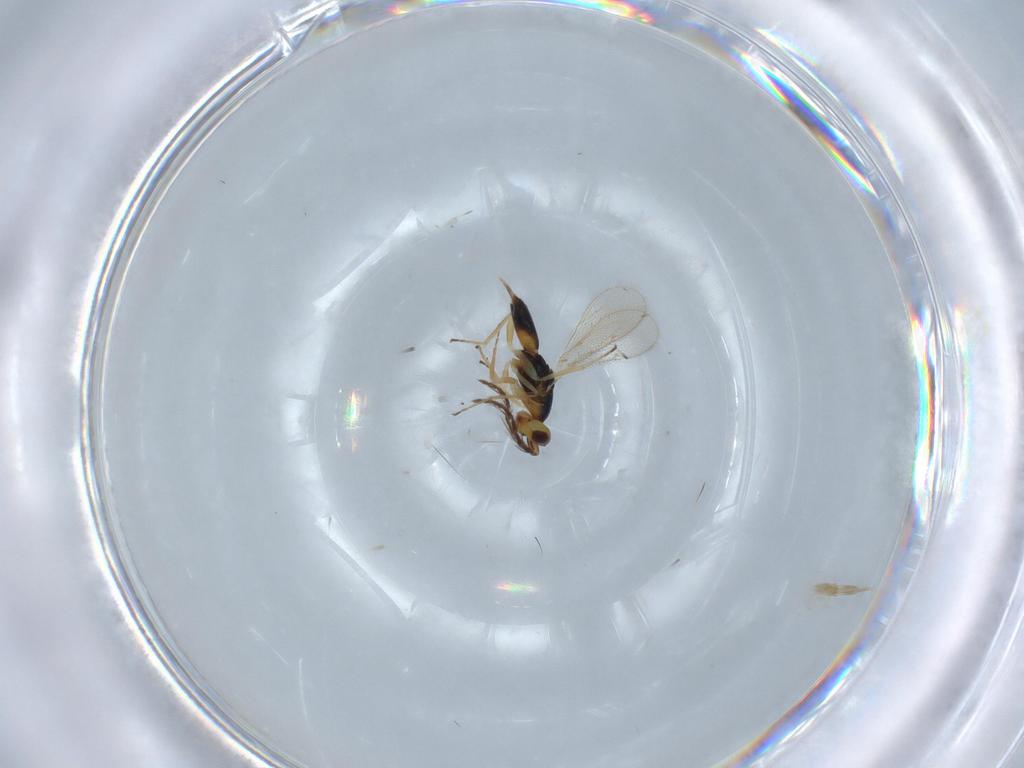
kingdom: Animalia
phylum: Arthropoda
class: Insecta
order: Hymenoptera
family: Eulophidae
